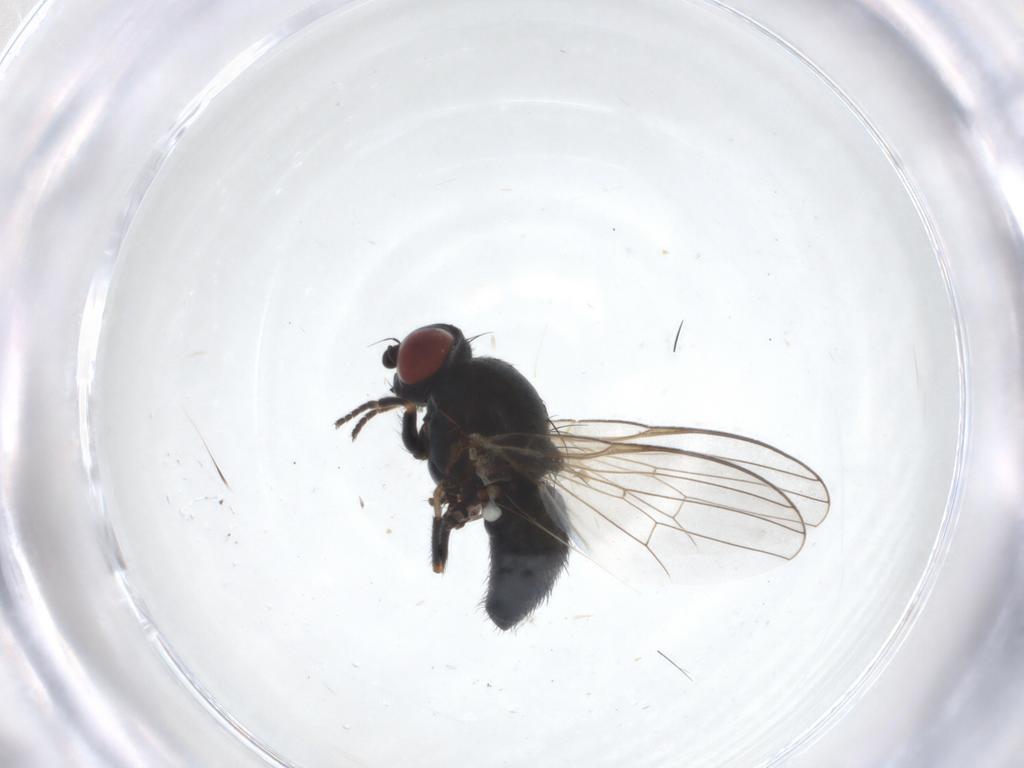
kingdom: Animalia
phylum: Arthropoda
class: Insecta
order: Diptera
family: Chamaemyiidae
